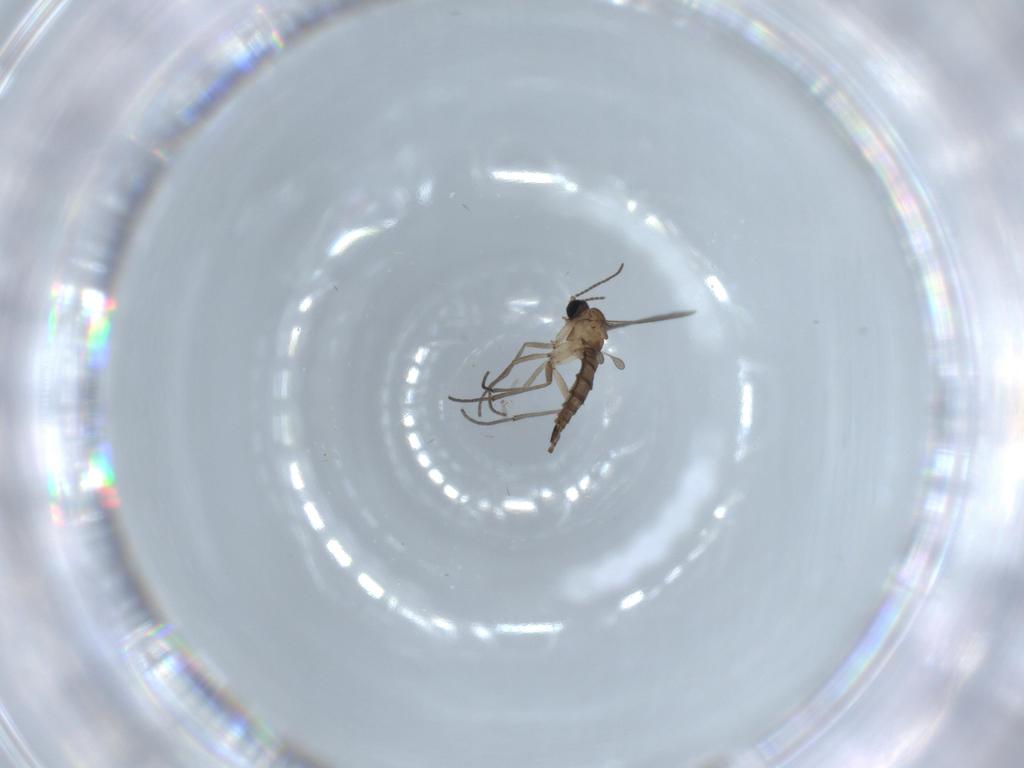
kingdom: Animalia
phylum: Arthropoda
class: Insecta
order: Diptera
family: Sciaridae
